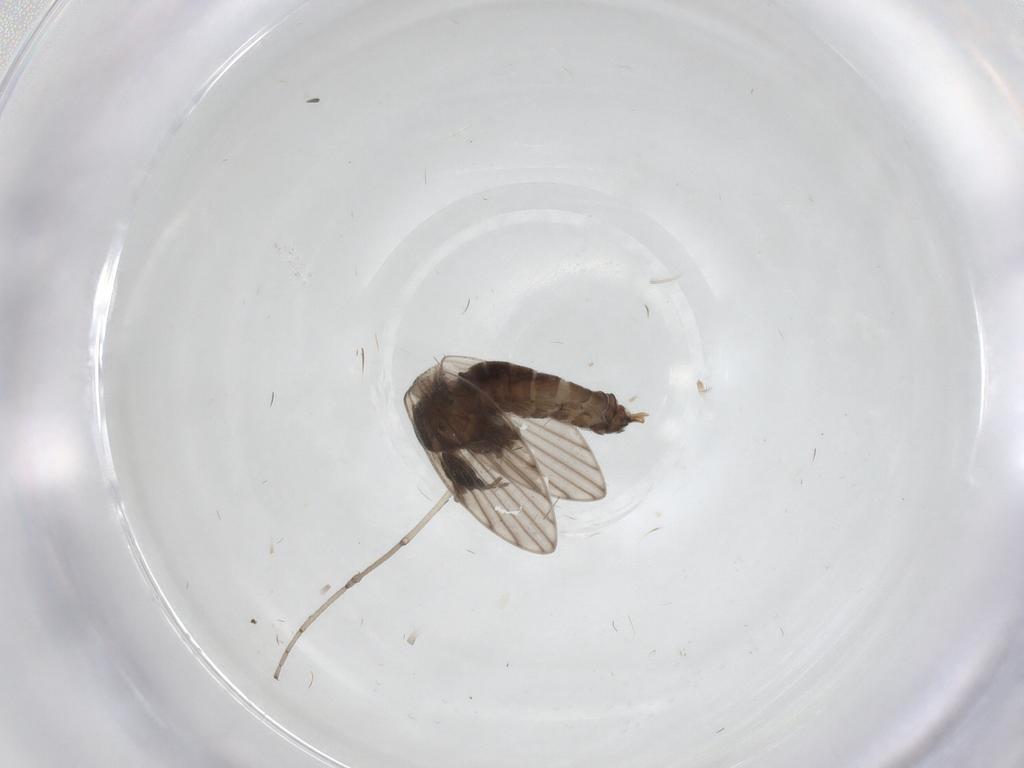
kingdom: Animalia
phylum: Arthropoda
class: Insecta
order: Diptera
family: Psychodidae
